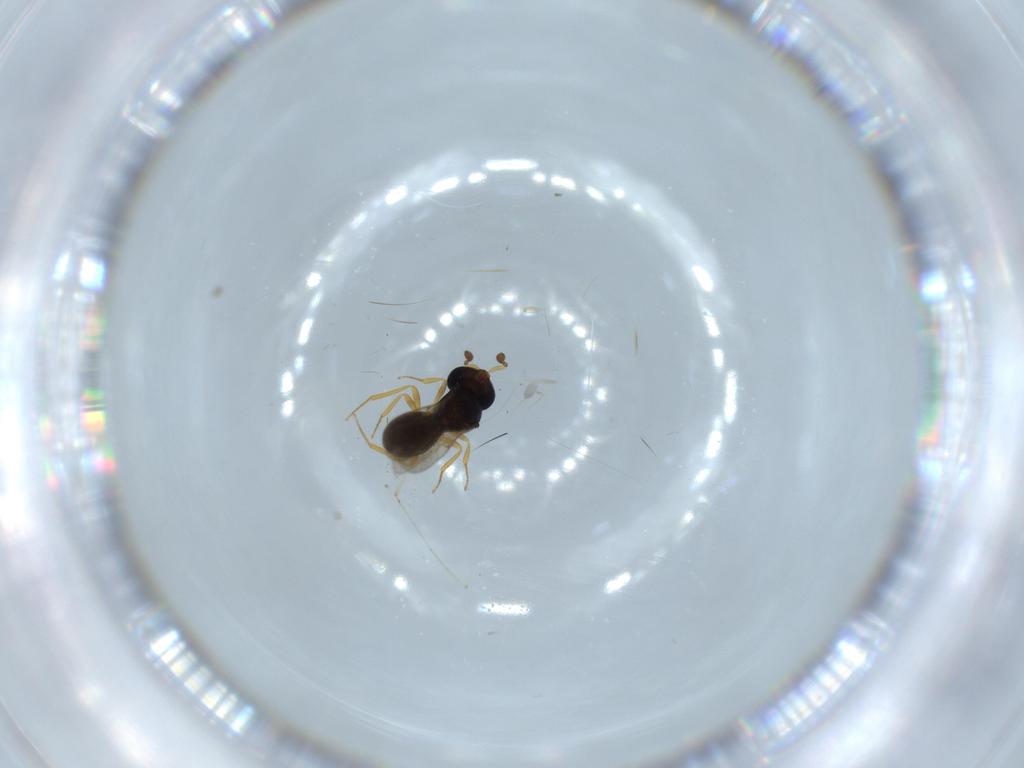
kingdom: Animalia
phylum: Arthropoda
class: Insecta
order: Hymenoptera
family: Scelionidae
